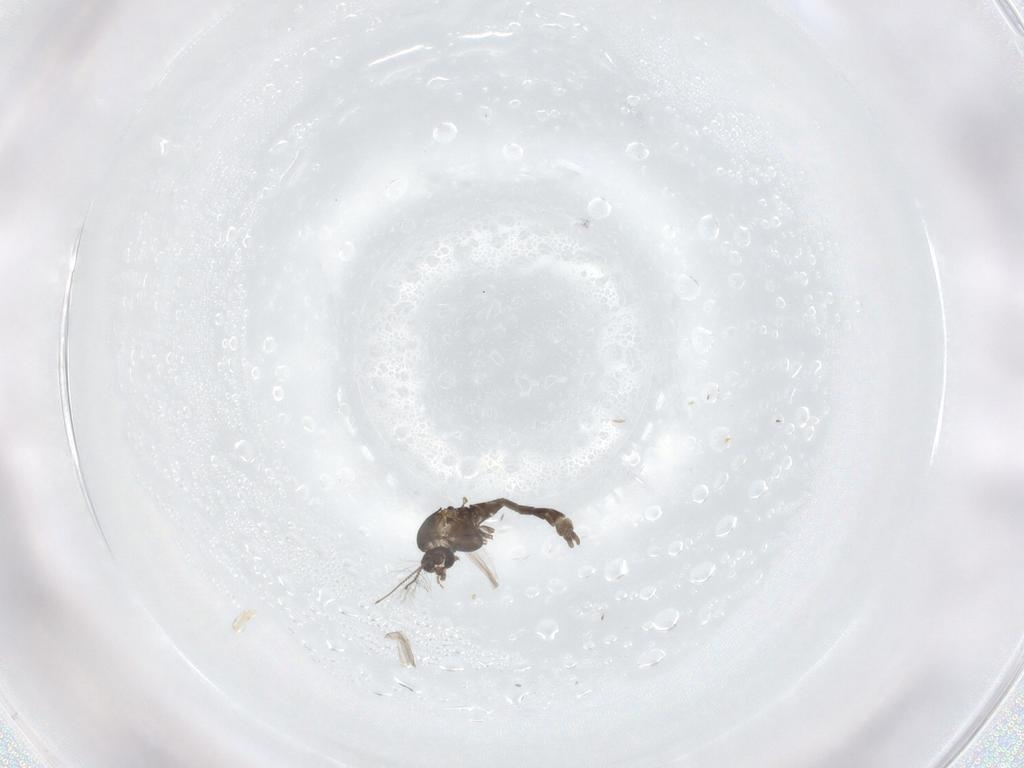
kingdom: Animalia
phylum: Arthropoda
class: Insecta
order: Diptera
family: Chironomidae
